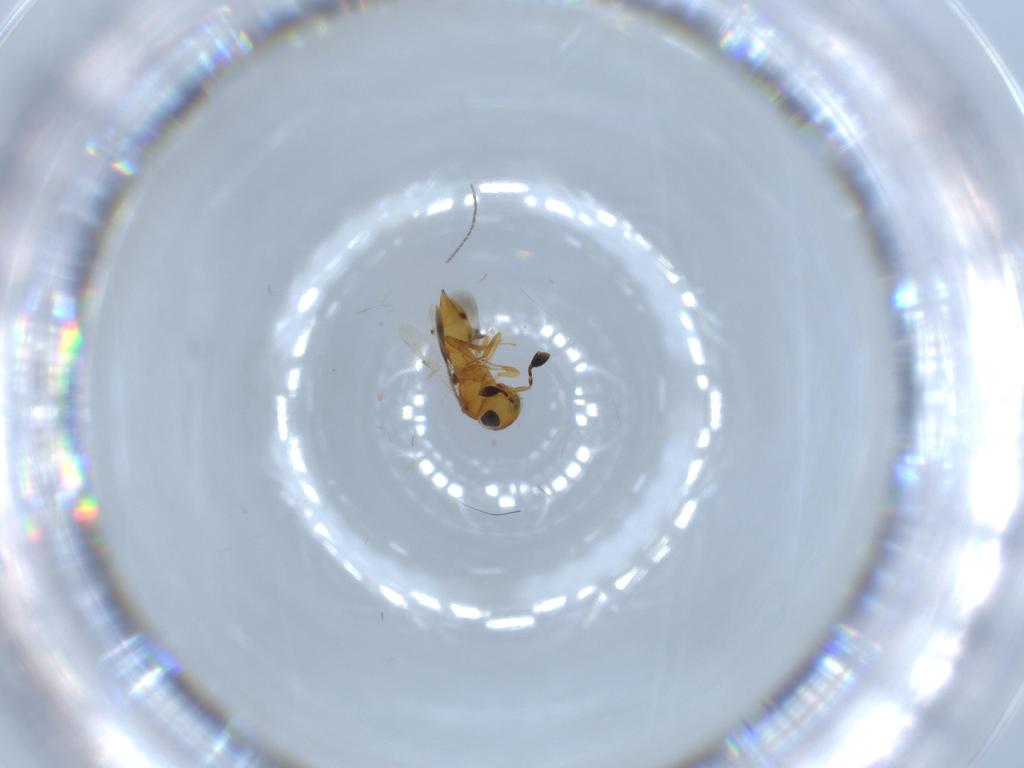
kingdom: Animalia
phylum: Arthropoda
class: Insecta
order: Hymenoptera
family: Scelionidae
